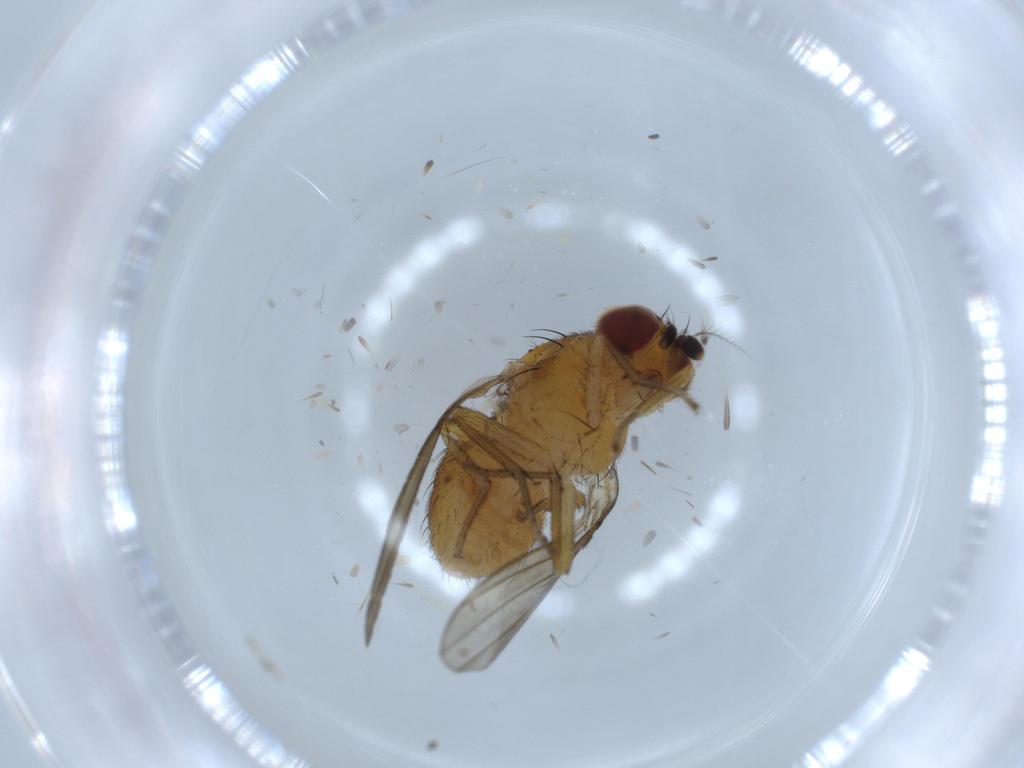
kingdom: Animalia
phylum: Arthropoda
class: Insecta
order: Diptera
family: Lauxaniidae
